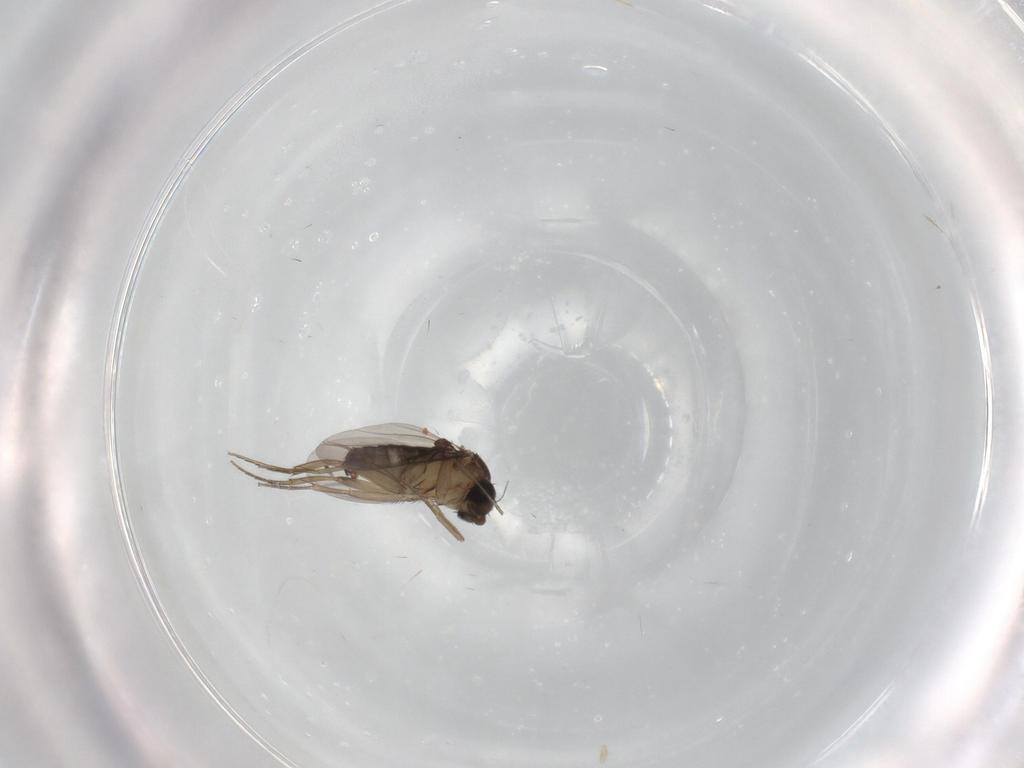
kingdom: Animalia
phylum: Arthropoda
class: Insecta
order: Diptera
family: Phoridae
